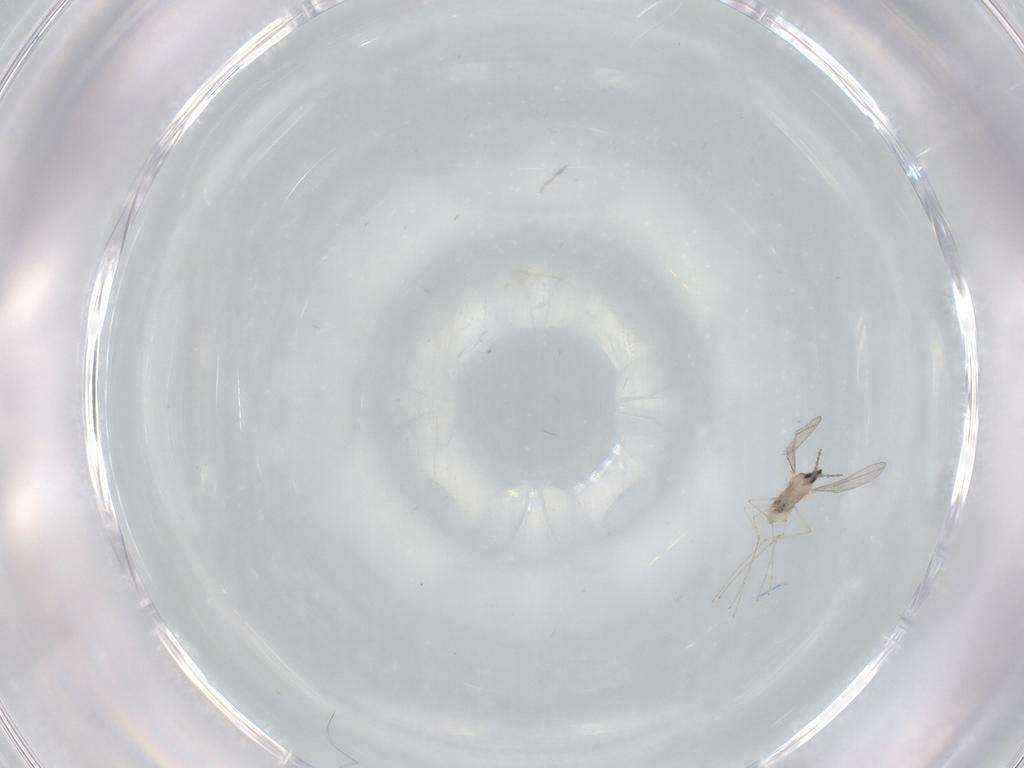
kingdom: Animalia
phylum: Arthropoda
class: Insecta
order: Diptera
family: Cecidomyiidae
